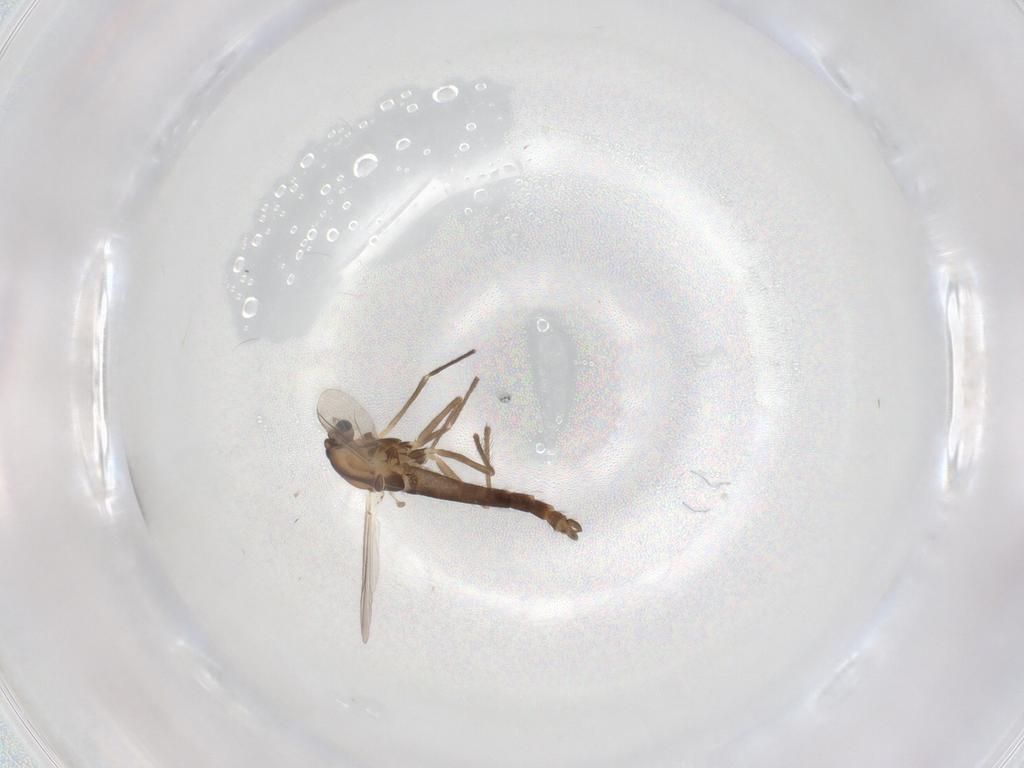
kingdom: Animalia
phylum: Arthropoda
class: Insecta
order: Diptera
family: Chironomidae
